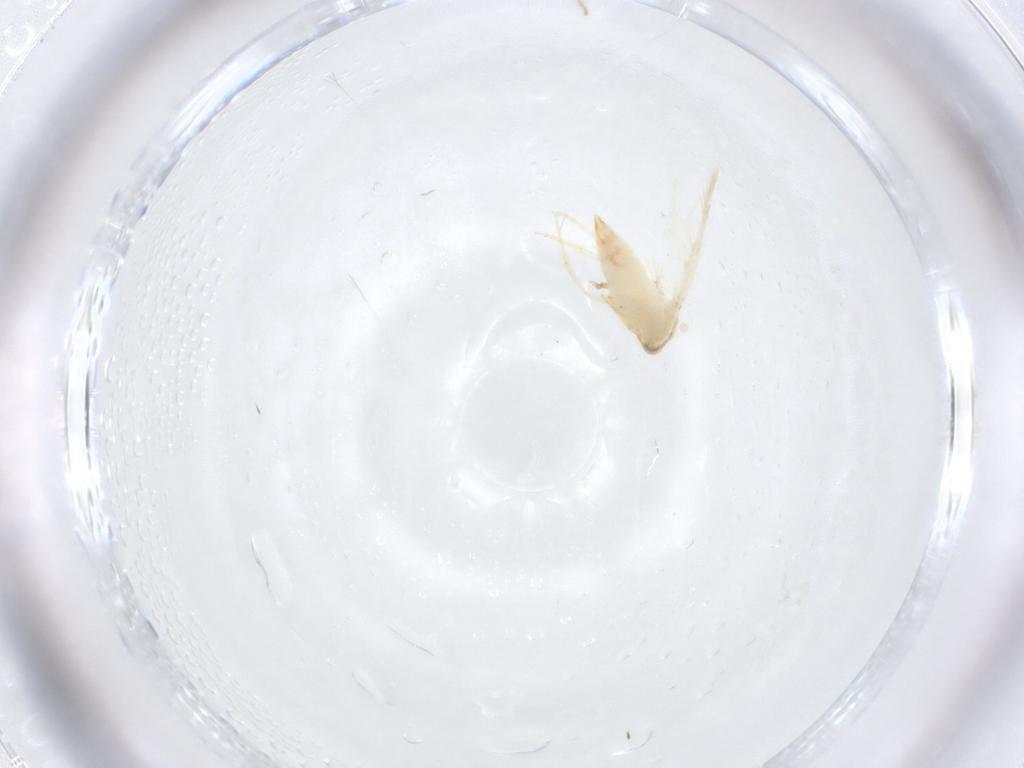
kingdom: Animalia
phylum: Arthropoda
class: Insecta
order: Lepidoptera
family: Nepticulidae
